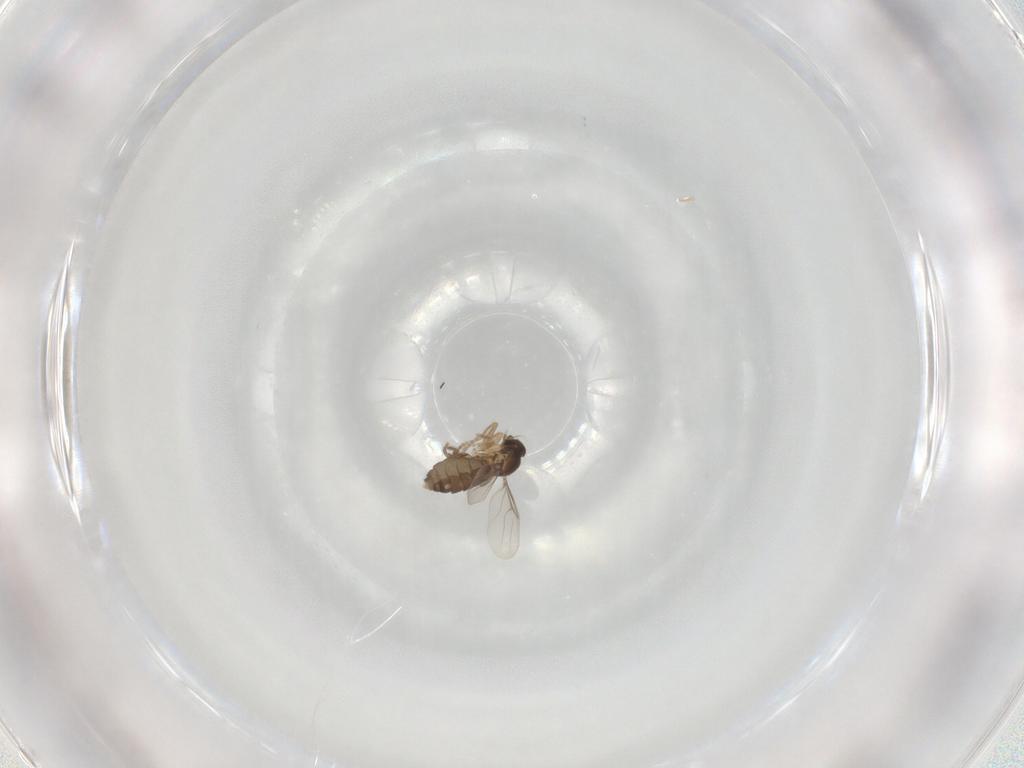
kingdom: Animalia
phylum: Arthropoda
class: Insecta
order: Diptera
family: Phoridae
